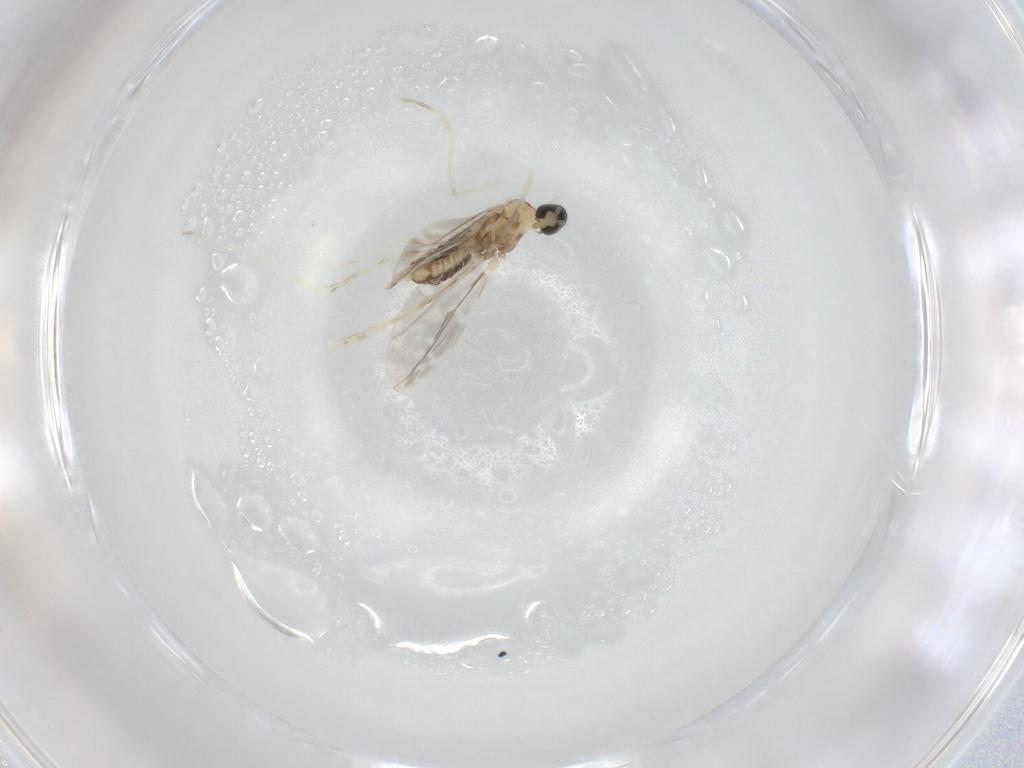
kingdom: Animalia
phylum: Arthropoda
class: Insecta
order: Diptera
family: Cecidomyiidae
